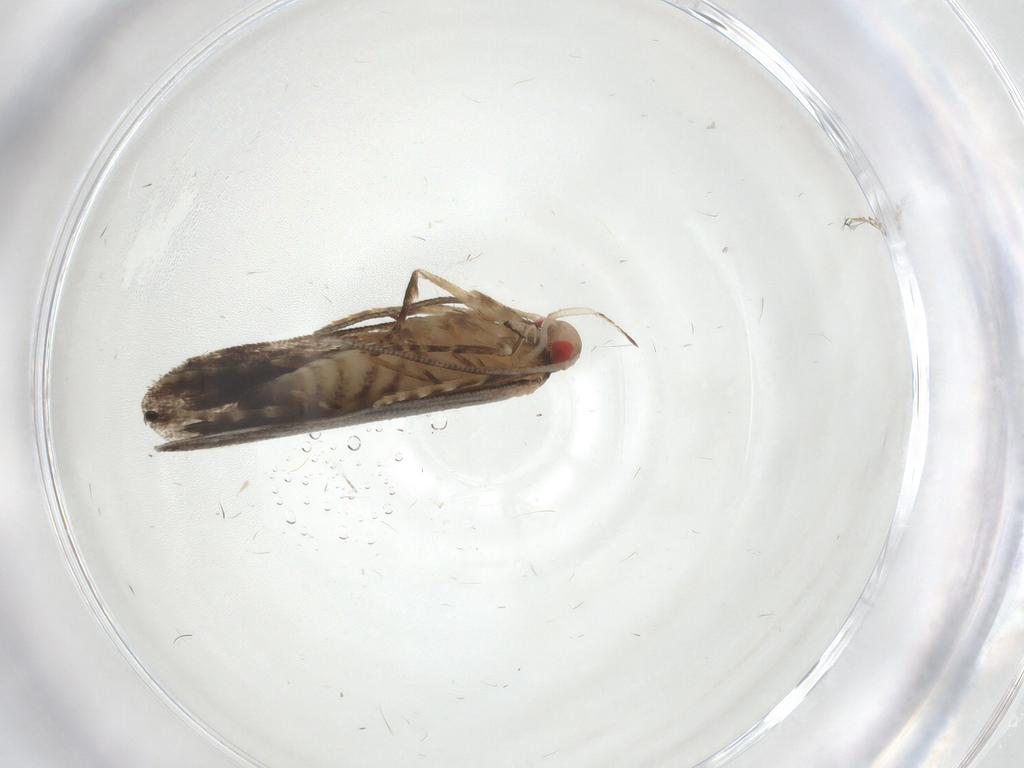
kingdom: Animalia
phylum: Arthropoda
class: Insecta
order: Lepidoptera
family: Gelechiidae
